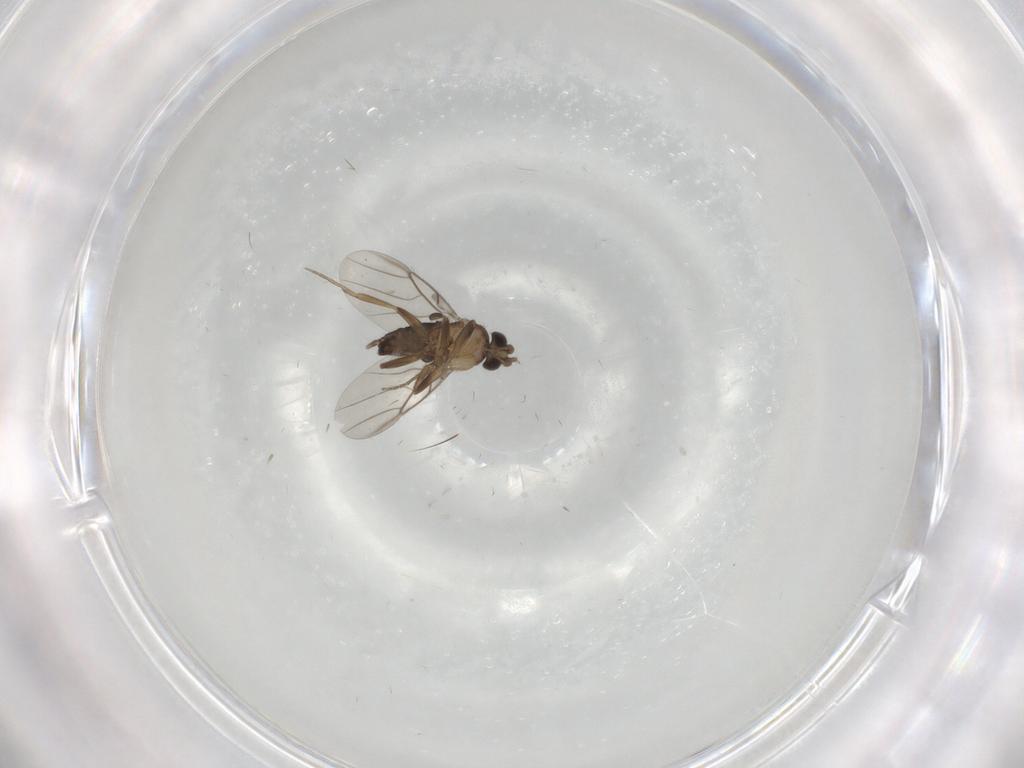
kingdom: Animalia
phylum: Arthropoda
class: Insecta
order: Diptera
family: Phoridae
